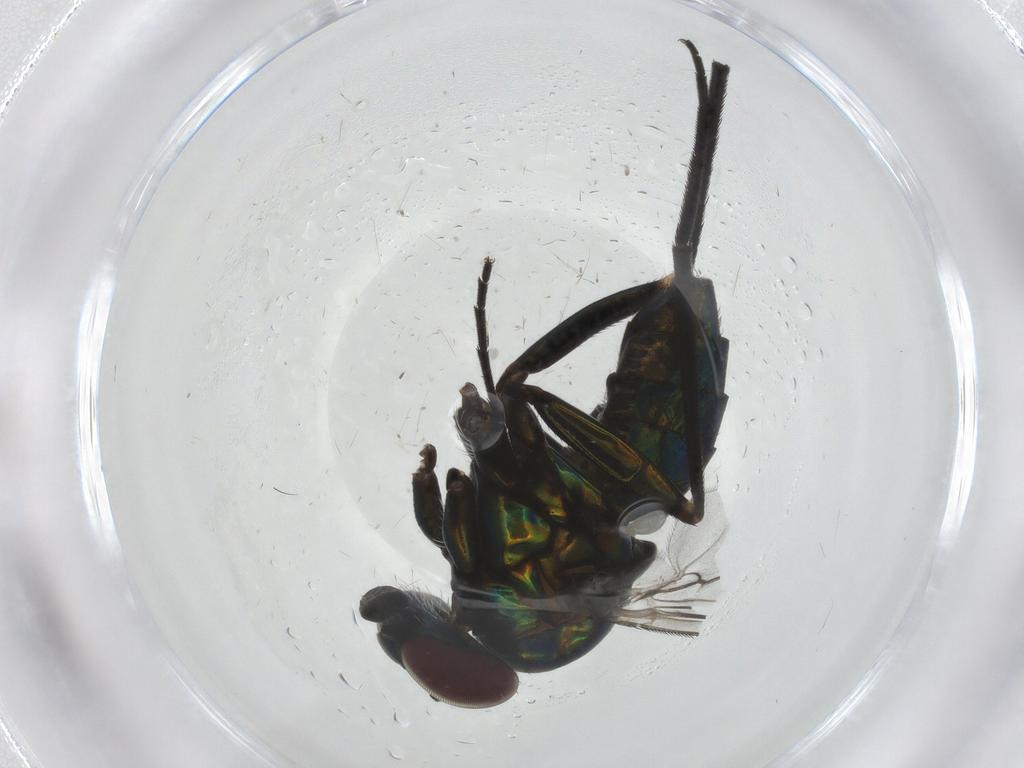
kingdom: Animalia
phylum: Arthropoda
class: Insecta
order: Diptera
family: Dolichopodidae
